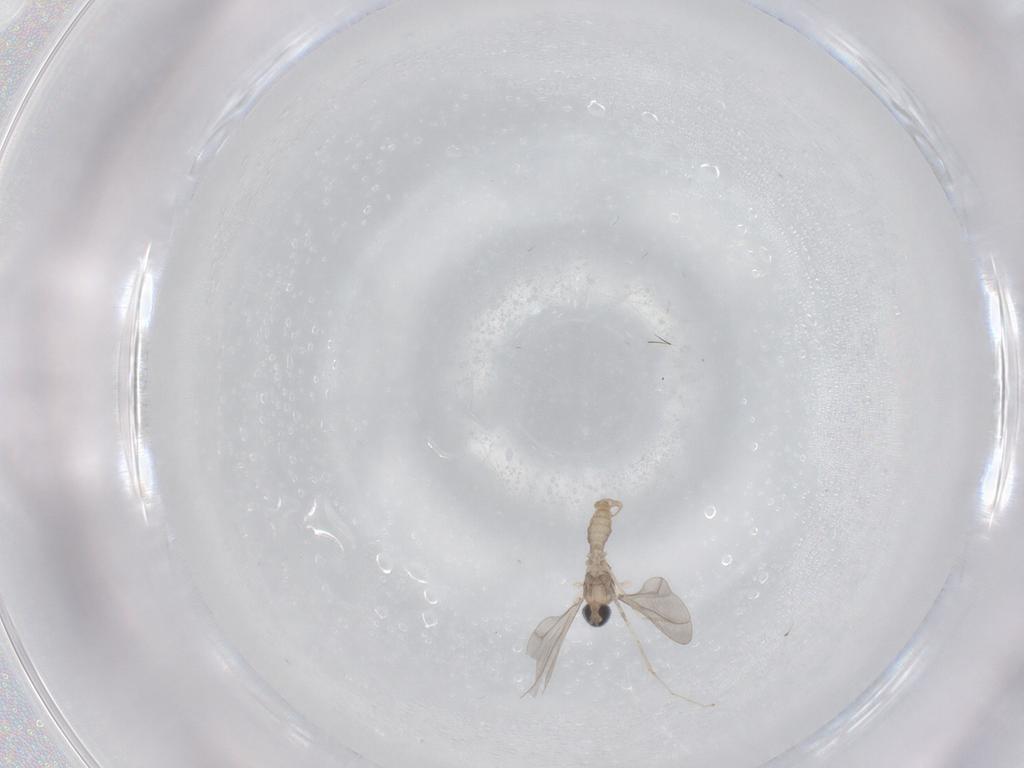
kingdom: Animalia
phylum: Arthropoda
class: Insecta
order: Diptera
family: Cecidomyiidae
